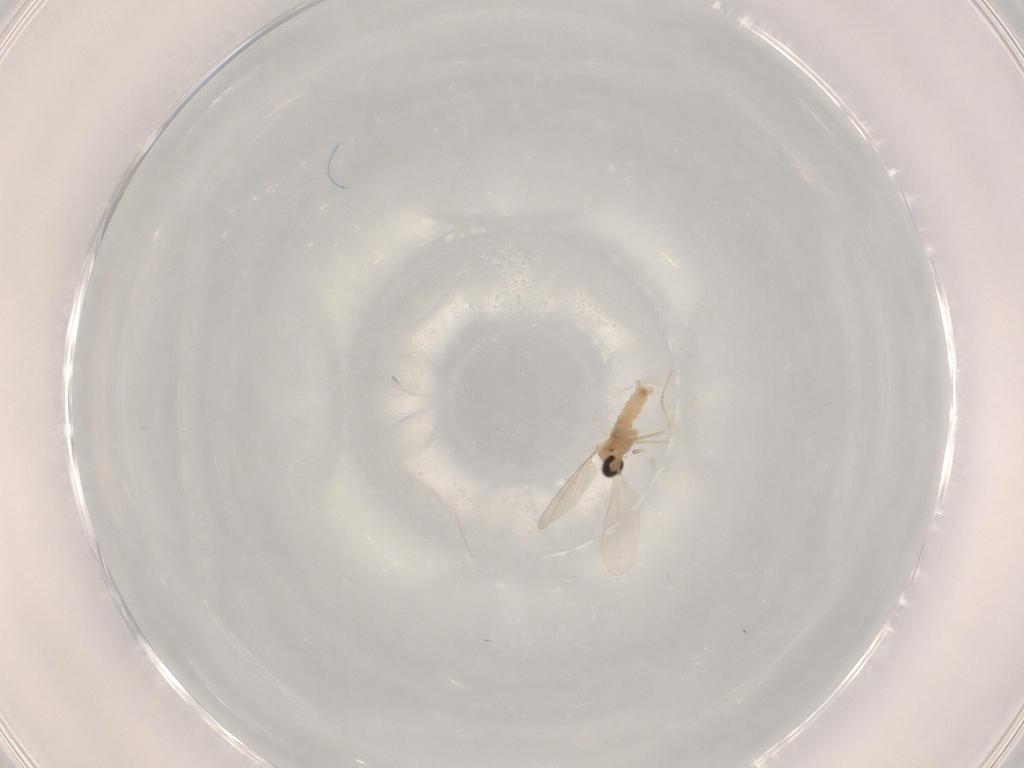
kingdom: Animalia
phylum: Arthropoda
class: Insecta
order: Diptera
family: Cecidomyiidae
